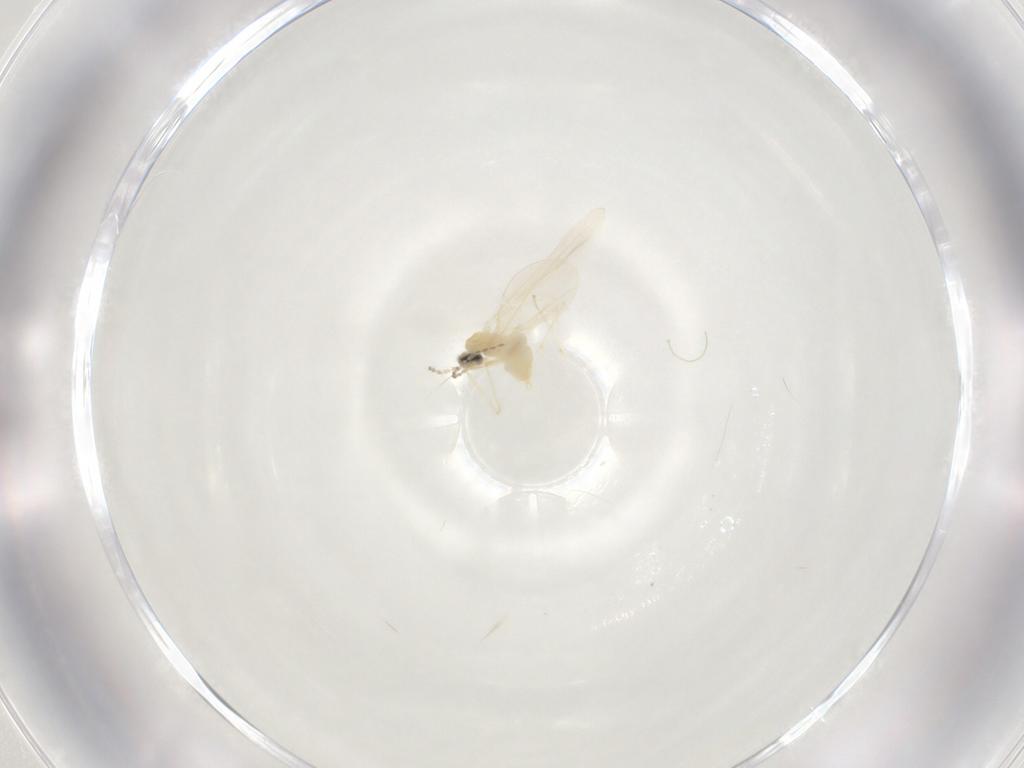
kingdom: Animalia
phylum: Arthropoda
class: Insecta
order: Diptera
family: Cecidomyiidae
